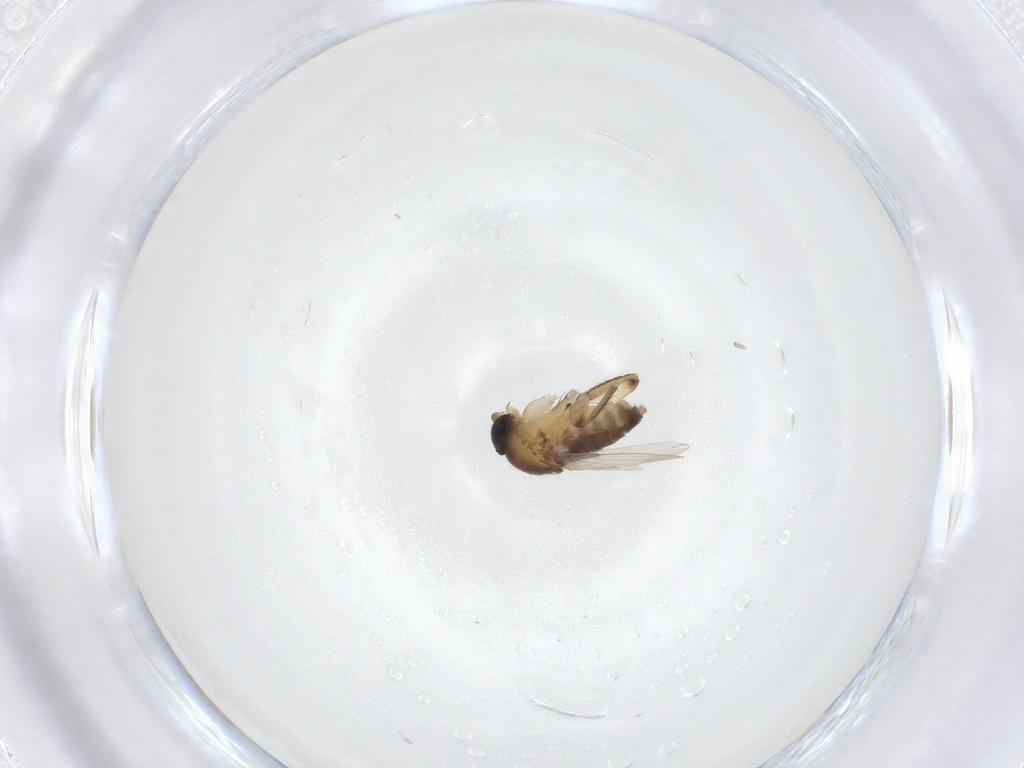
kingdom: Animalia
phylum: Arthropoda
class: Insecta
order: Diptera
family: Phoridae
